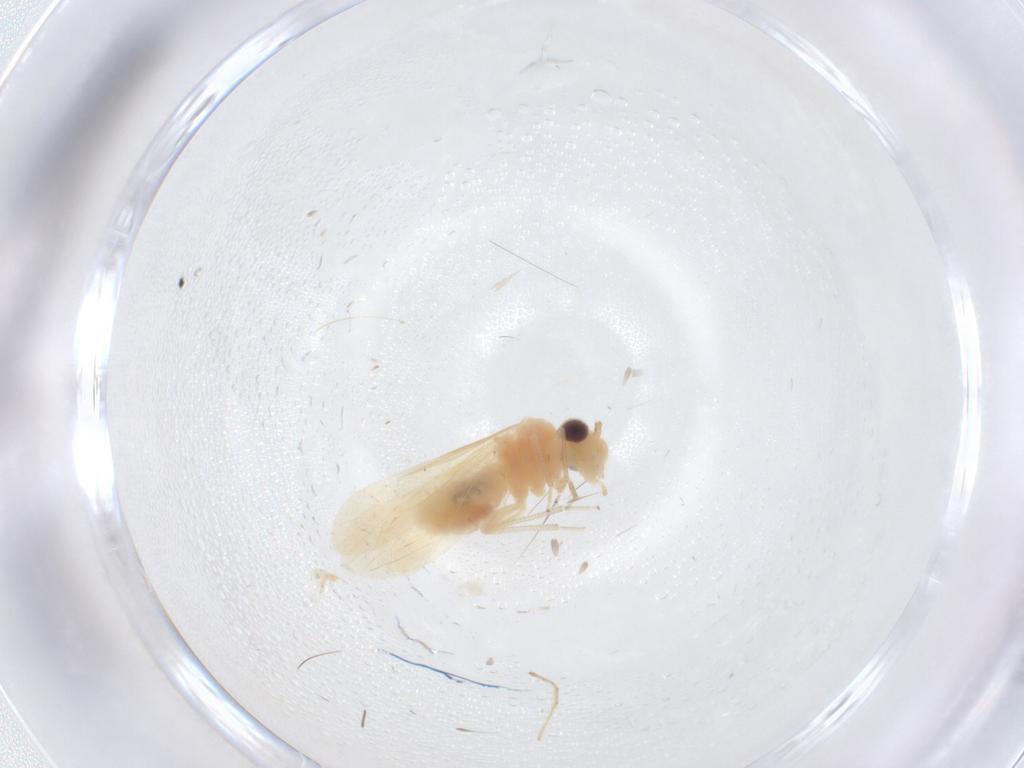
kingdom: Animalia
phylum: Arthropoda
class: Insecta
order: Psocodea
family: Caeciliusidae
